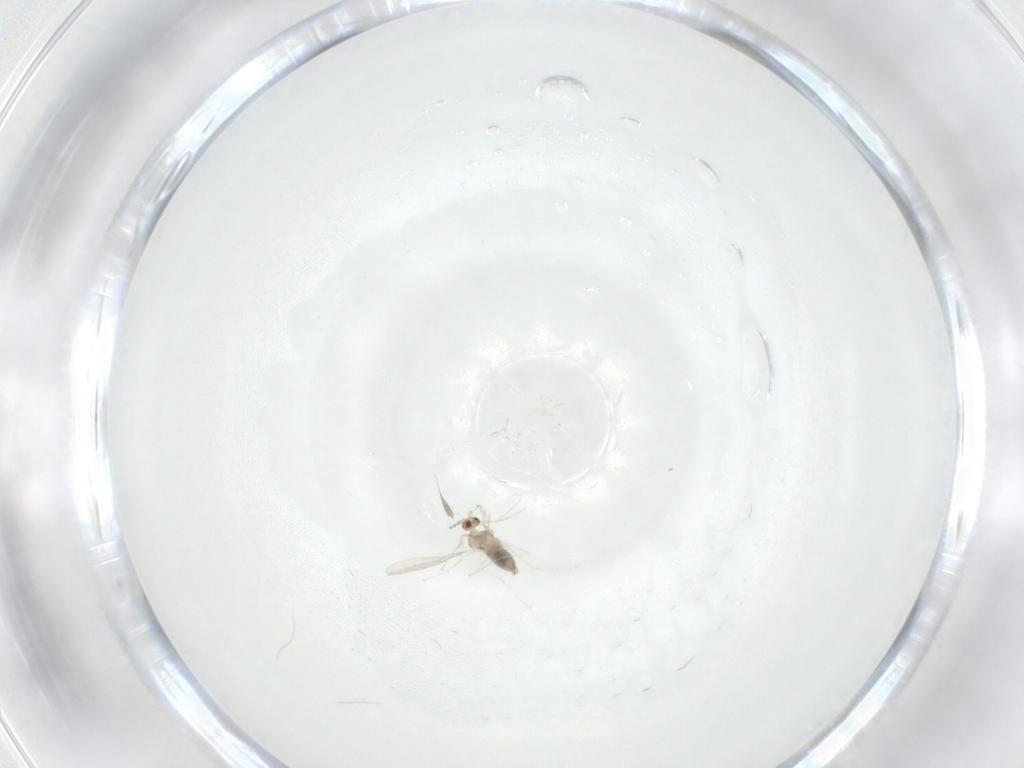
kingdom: Animalia
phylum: Arthropoda
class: Insecta
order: Diptera
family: Cecidomyiidae
